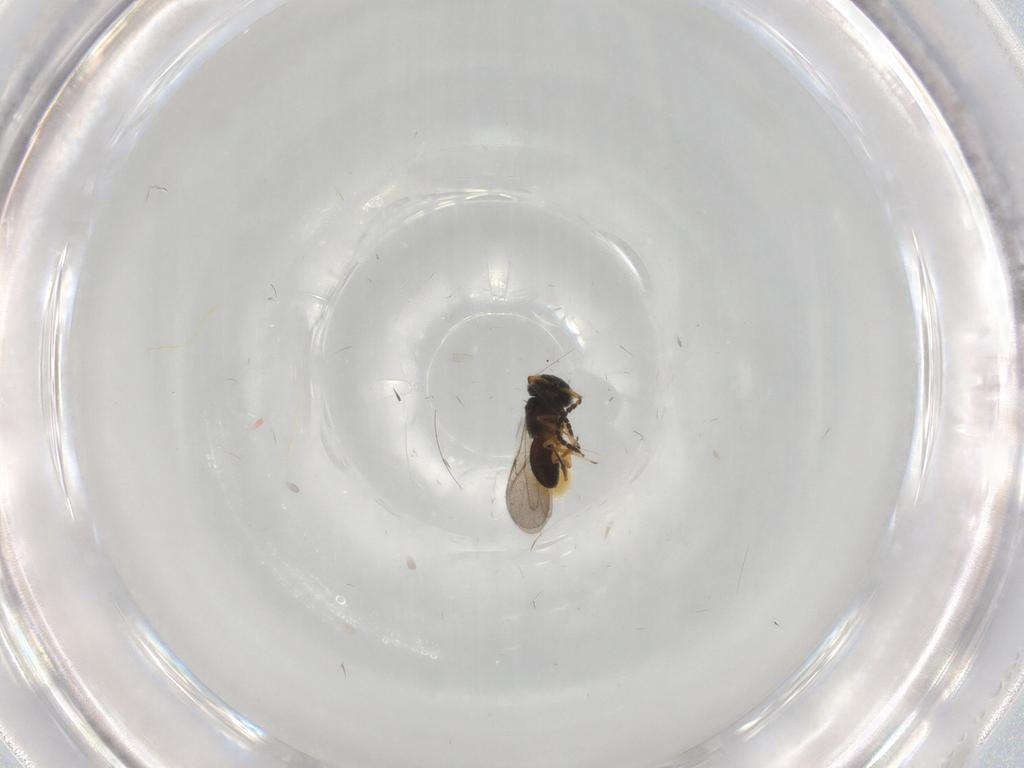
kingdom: Animalia
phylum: Arthropoda
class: Insecta
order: Hymenoptera
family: Scelionidae
